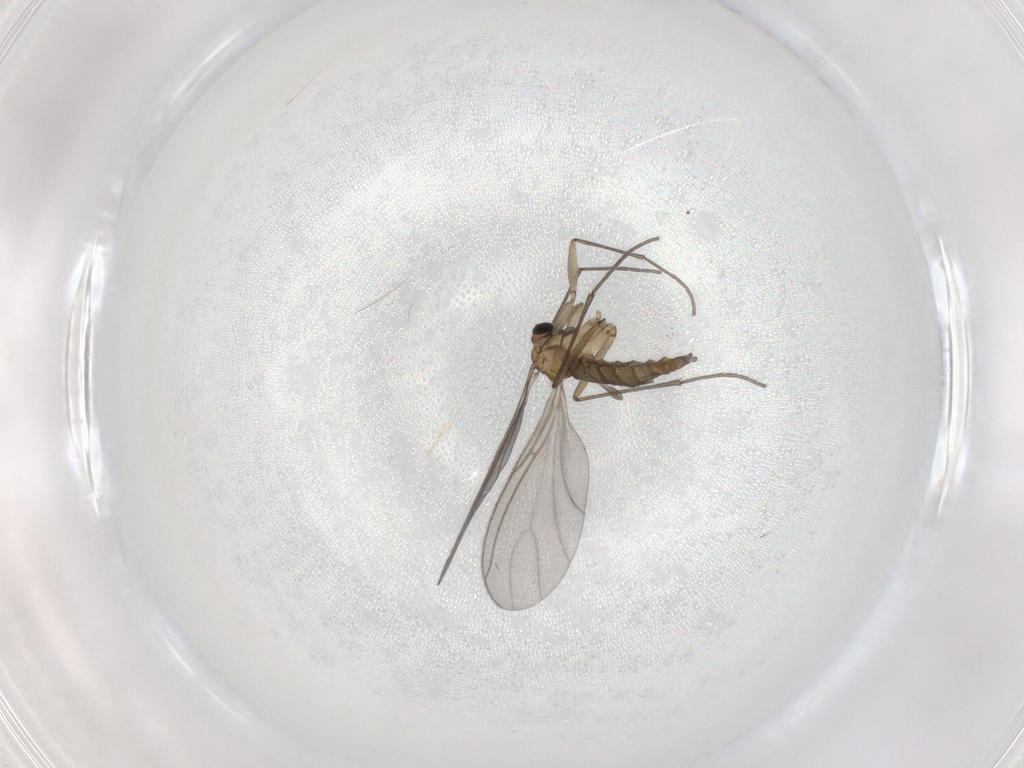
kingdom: Animalia
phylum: Arthropoda
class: Insecta
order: Diptera
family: Sciaridae
